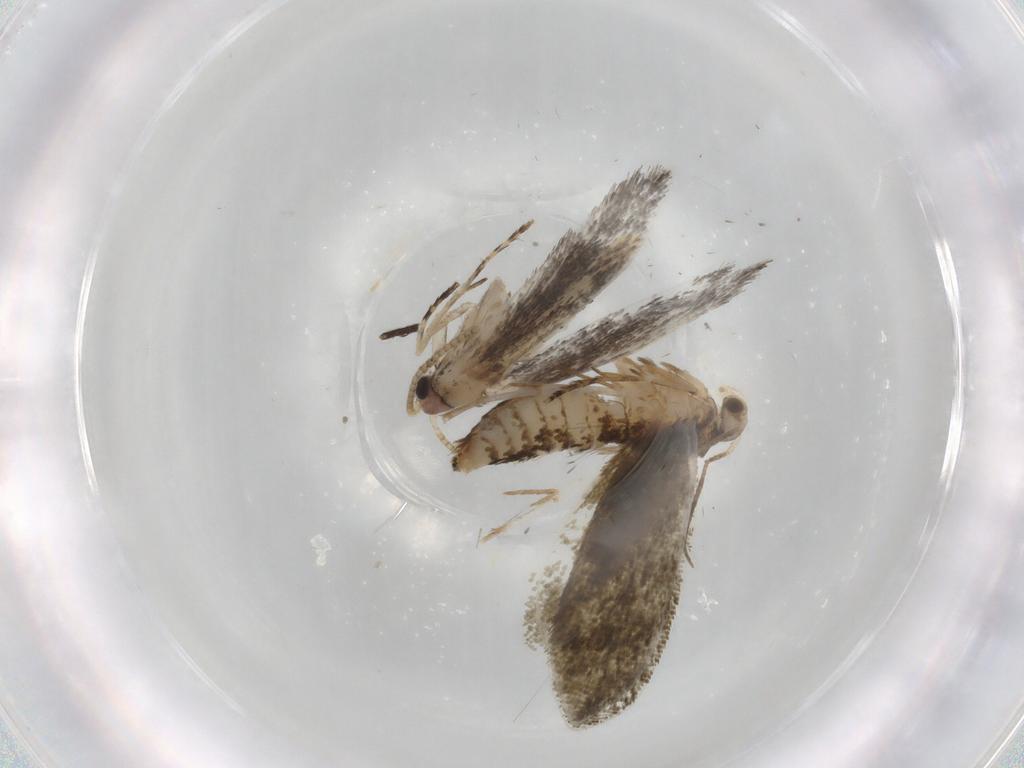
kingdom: Animalia
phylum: Arthropoda
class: Insecta
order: Lepidoptera
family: Tineidae
